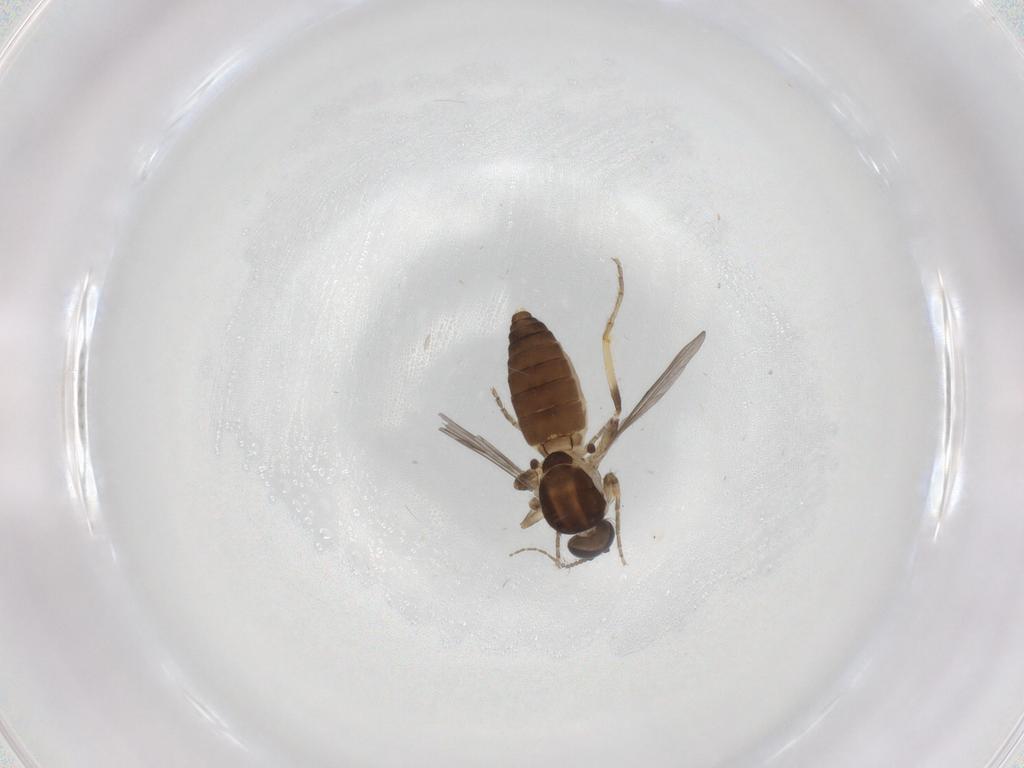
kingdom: Animalia
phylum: Arthropoda
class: Insecta
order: Diptera
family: Ceratopogonidae
